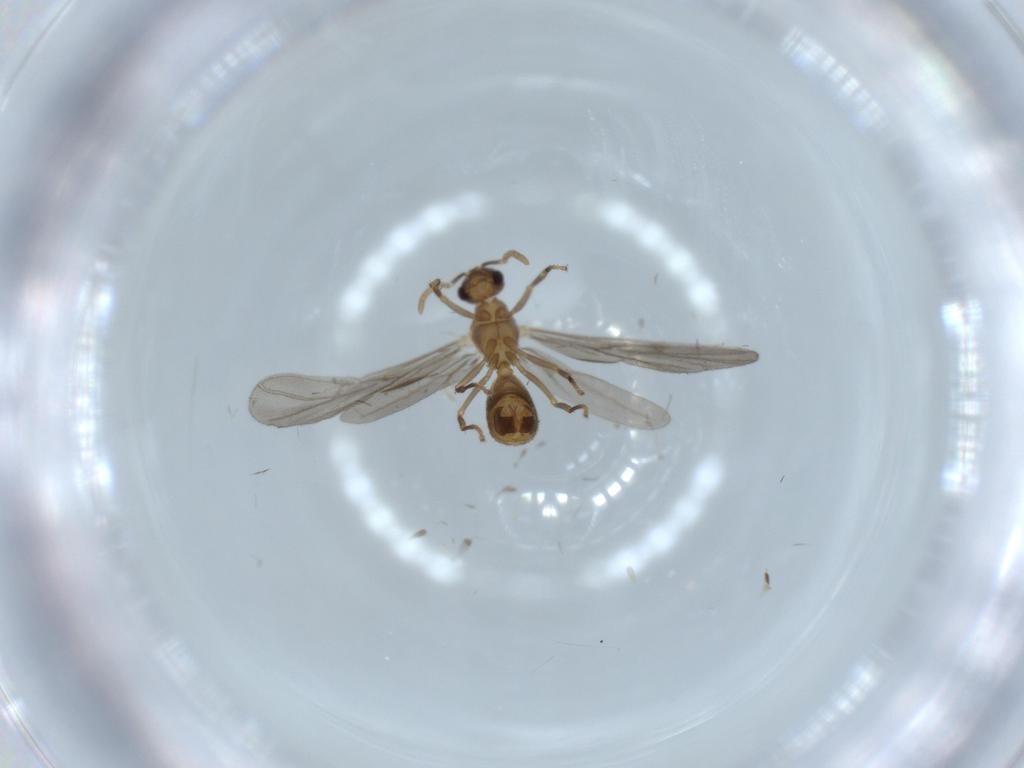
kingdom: Animalia
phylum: Arthropoda
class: Insecta
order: Hymenoptera
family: Formicidae
